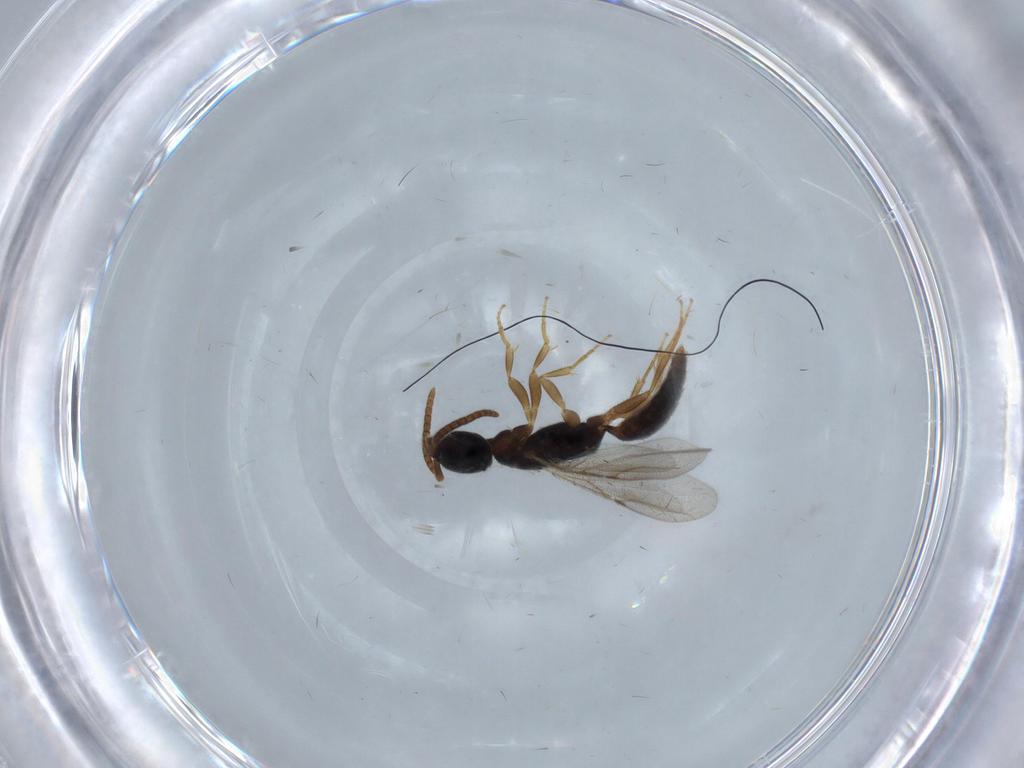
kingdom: Animalia
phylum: Arthropoda
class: Insecta
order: Hymenoptera
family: Bethylidae
